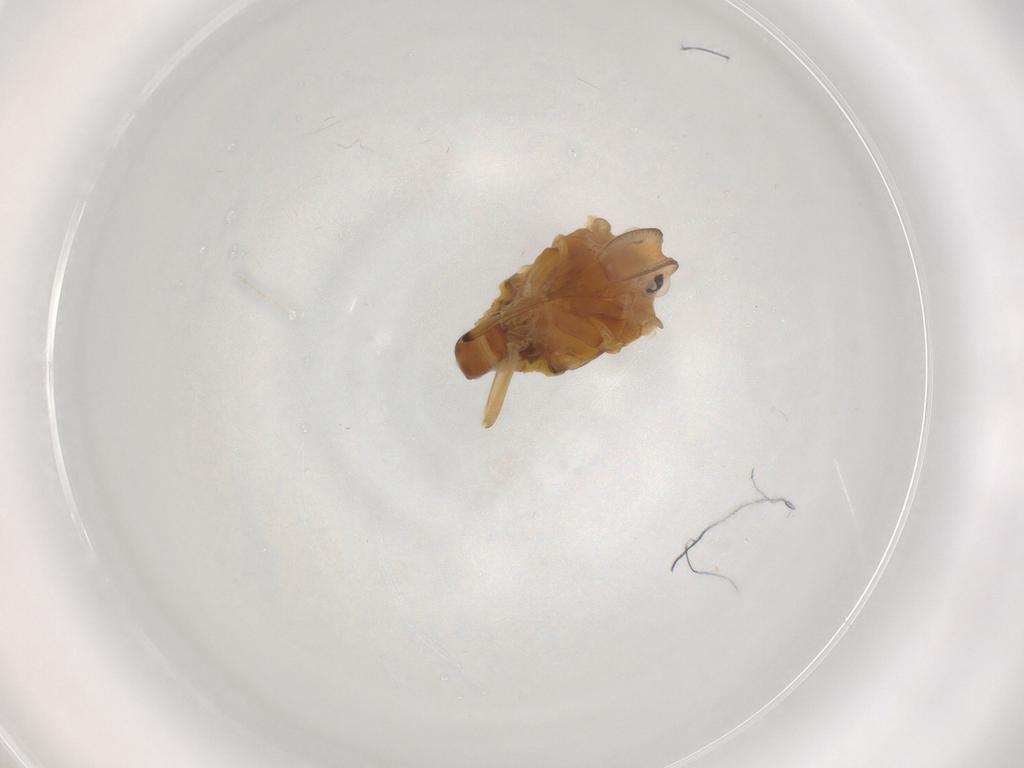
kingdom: Animalia
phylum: Arthropoda
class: Insecta
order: Hemiptera
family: Meenoplidae
